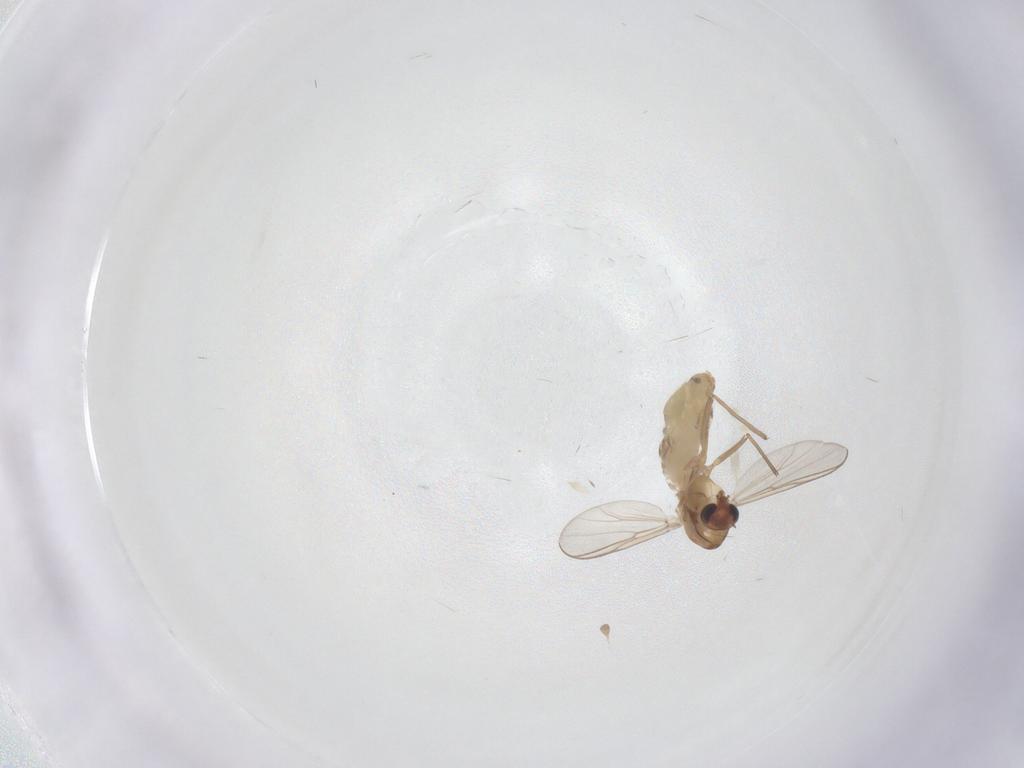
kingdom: Animalia
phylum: Arthropoda
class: Insecta
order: Diptera
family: Chironomidae
